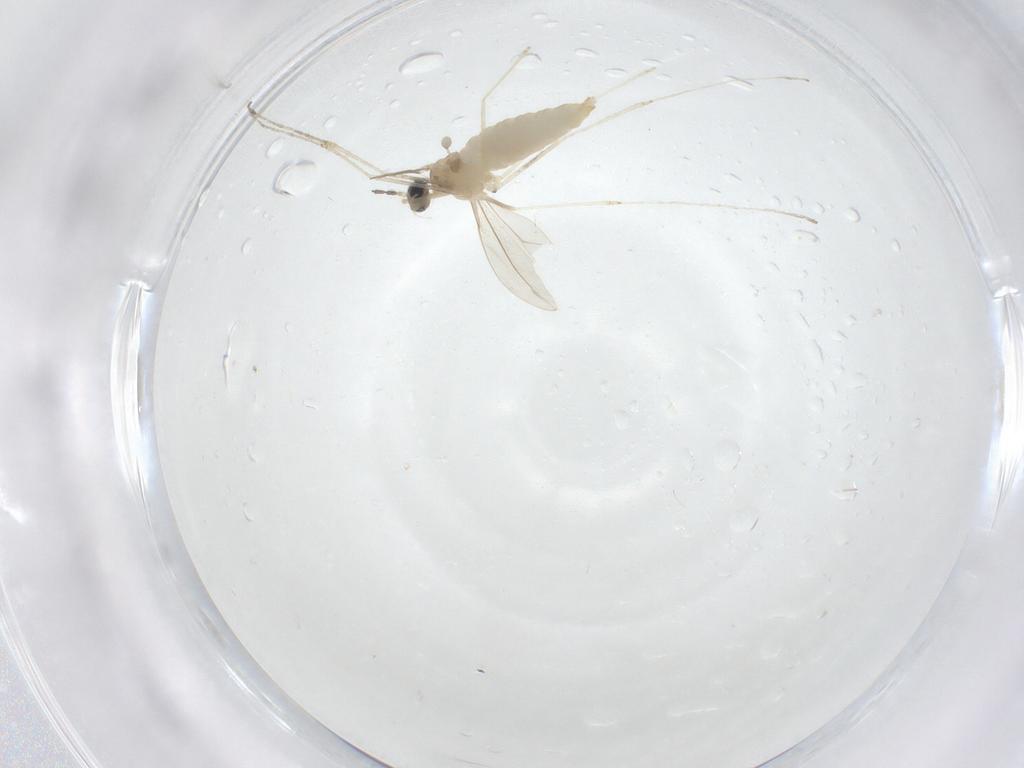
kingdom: Animalia
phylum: Arthropoda
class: Insecta
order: Diptera
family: Cecidomyiidae
